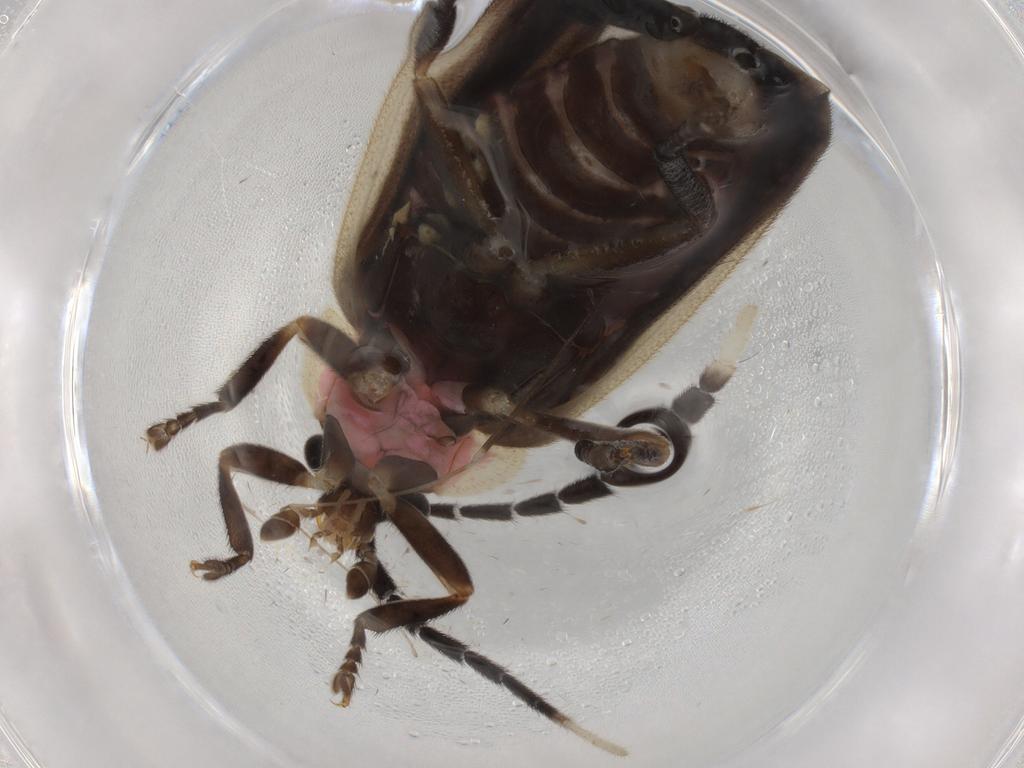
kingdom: Animalia
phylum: Arthropoda
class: Insecta
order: Coleoptera
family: Lampyridae
